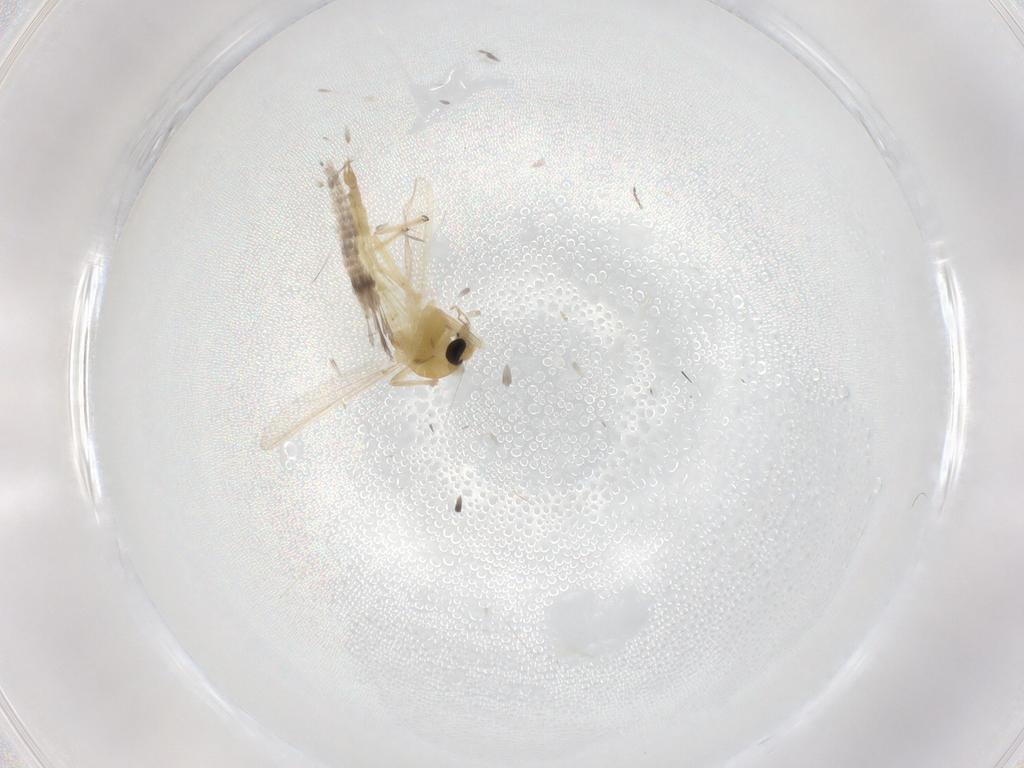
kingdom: Animalia
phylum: Arthropoda
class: Insecta
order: Diptera
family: Chironomidae
